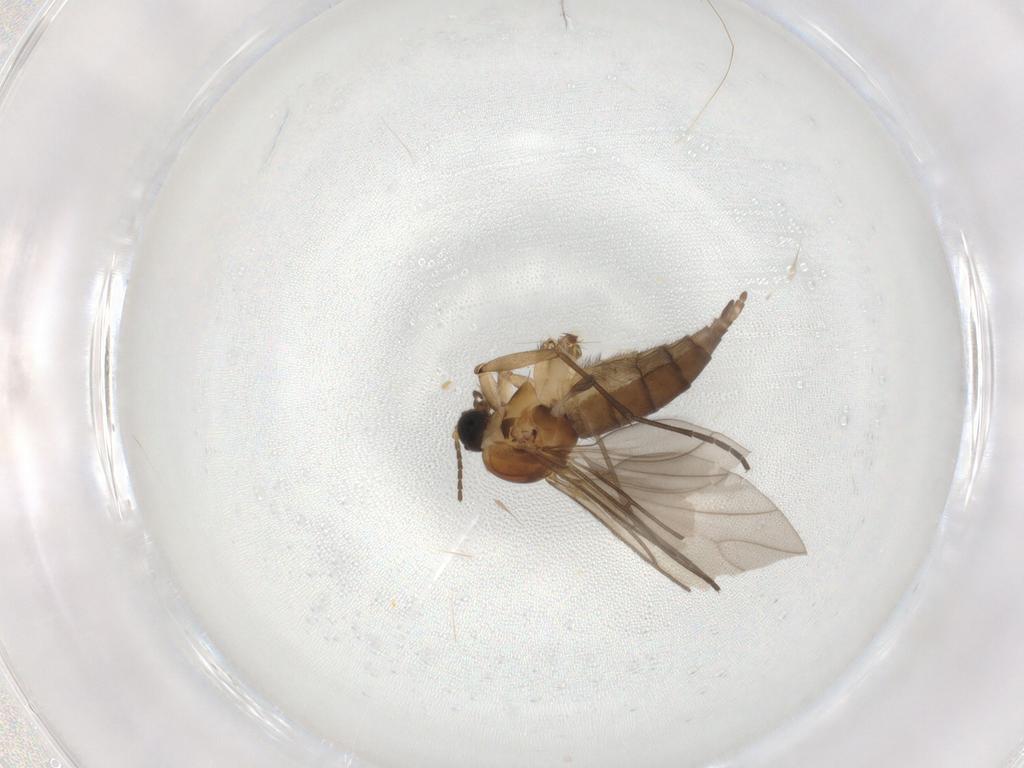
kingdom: Animalia
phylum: Arthropoda
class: Insecta
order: Diptera
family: Sciaridae
